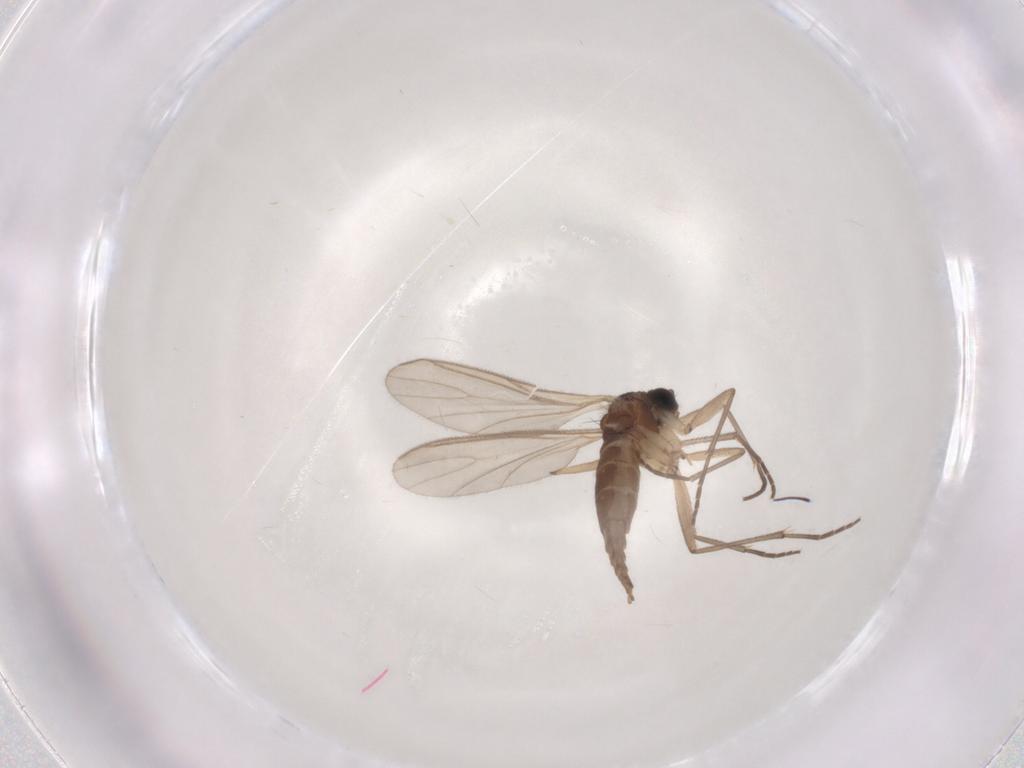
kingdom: Animalia
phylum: Arthropoda
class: Insecta
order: Diptera
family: Sciaridae
